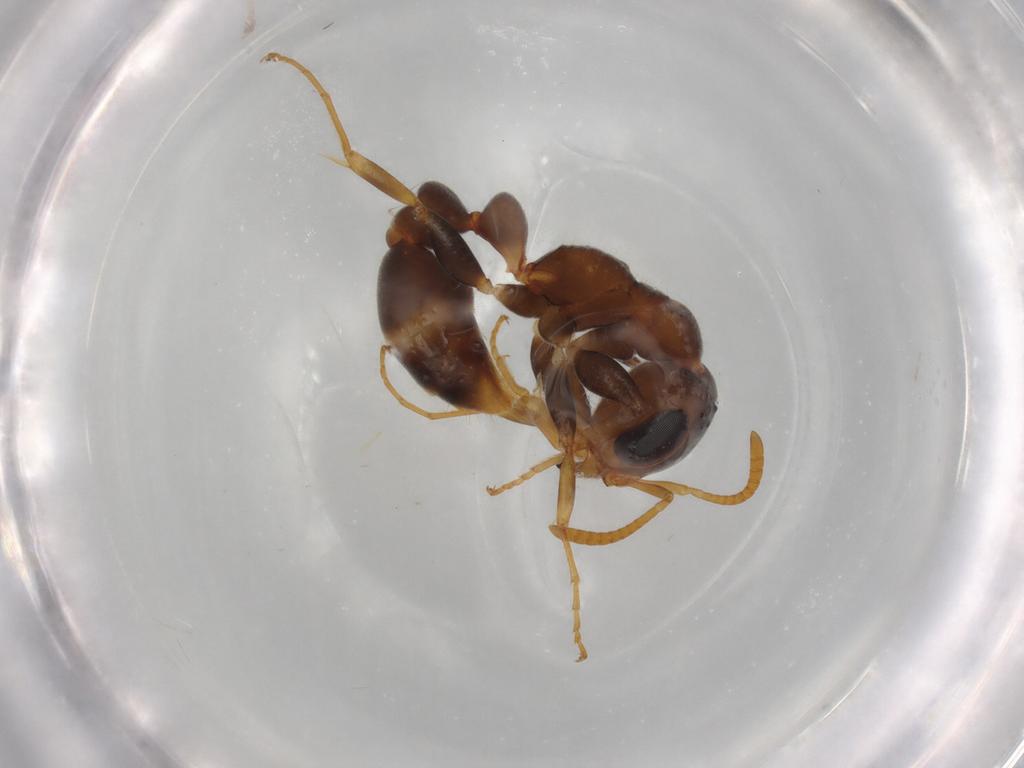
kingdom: Animalia
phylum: Arthropoda
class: Insecta
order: Hymenoptera
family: Formicidae
